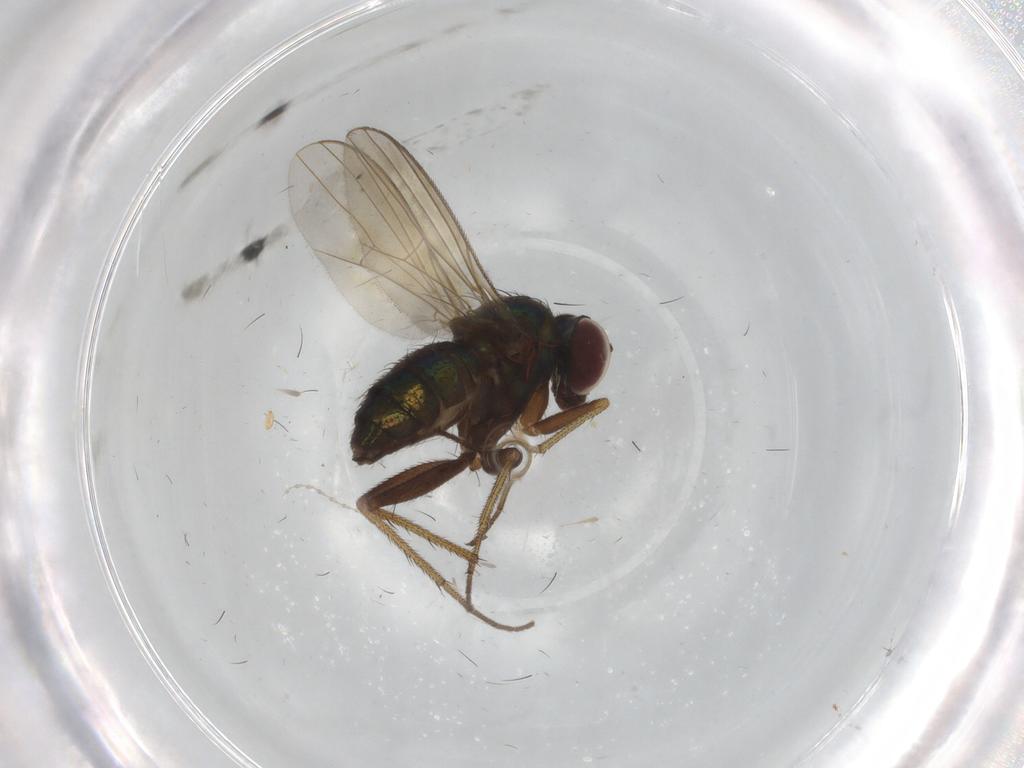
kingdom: Animalia
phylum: Arthropoda
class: Insecta
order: Diptera
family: Dolichopodidae
